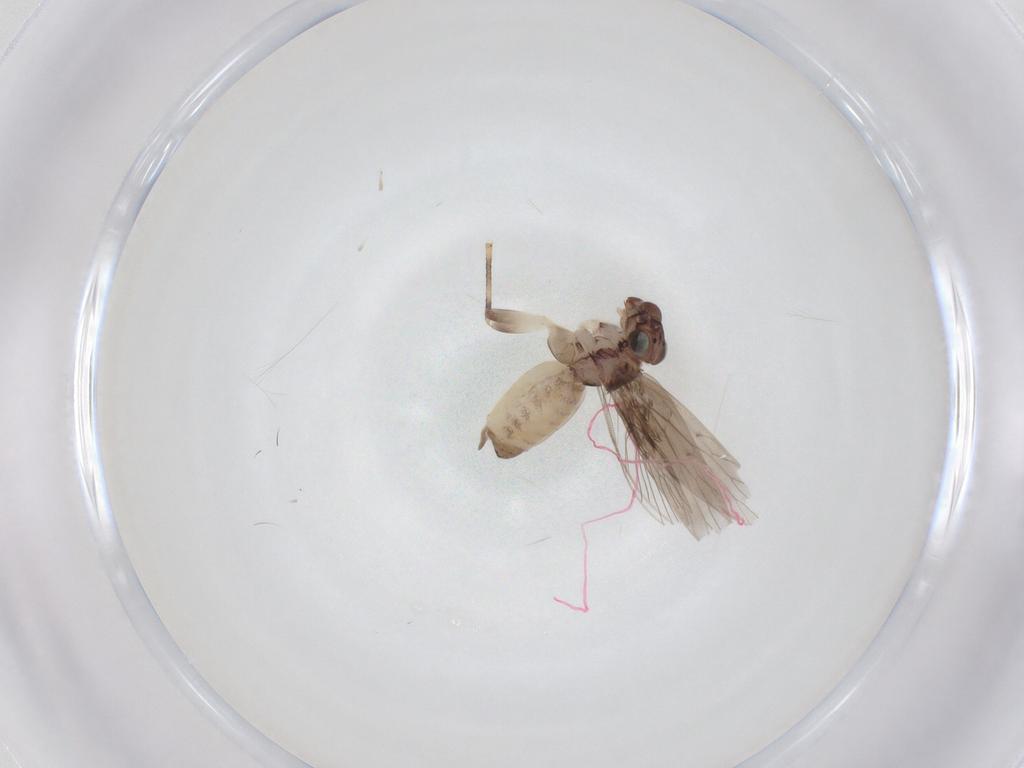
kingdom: Animalia
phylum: Arthropoda
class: Insecta
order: Psocodea
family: Lepidopsocidae
